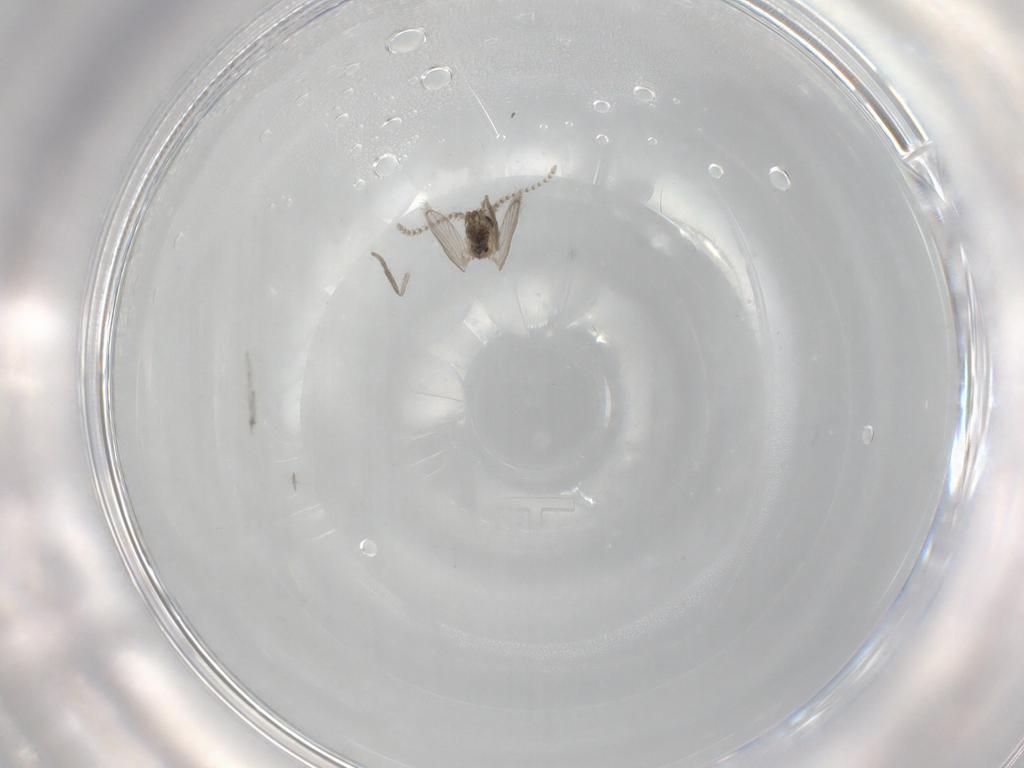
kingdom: Animalia
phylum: Arthropoda
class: Insecta
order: Diptera
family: Psychodidae
